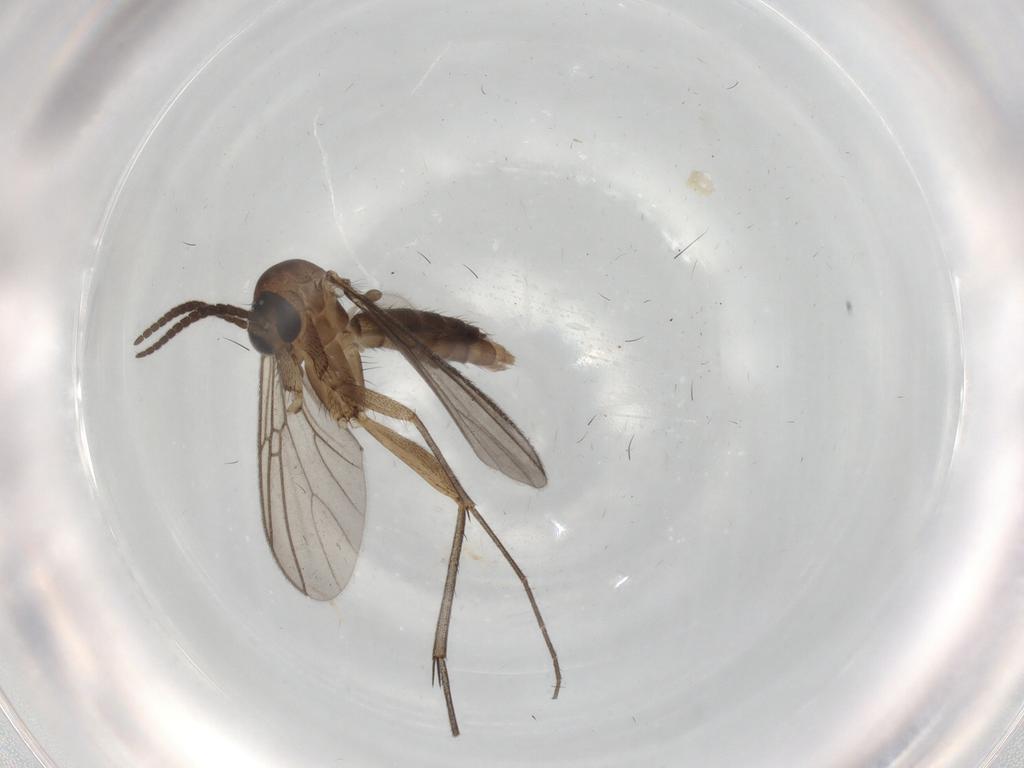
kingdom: Animalia
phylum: Arthropoda
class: Insecta
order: Diptera
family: Mycetophilidae
